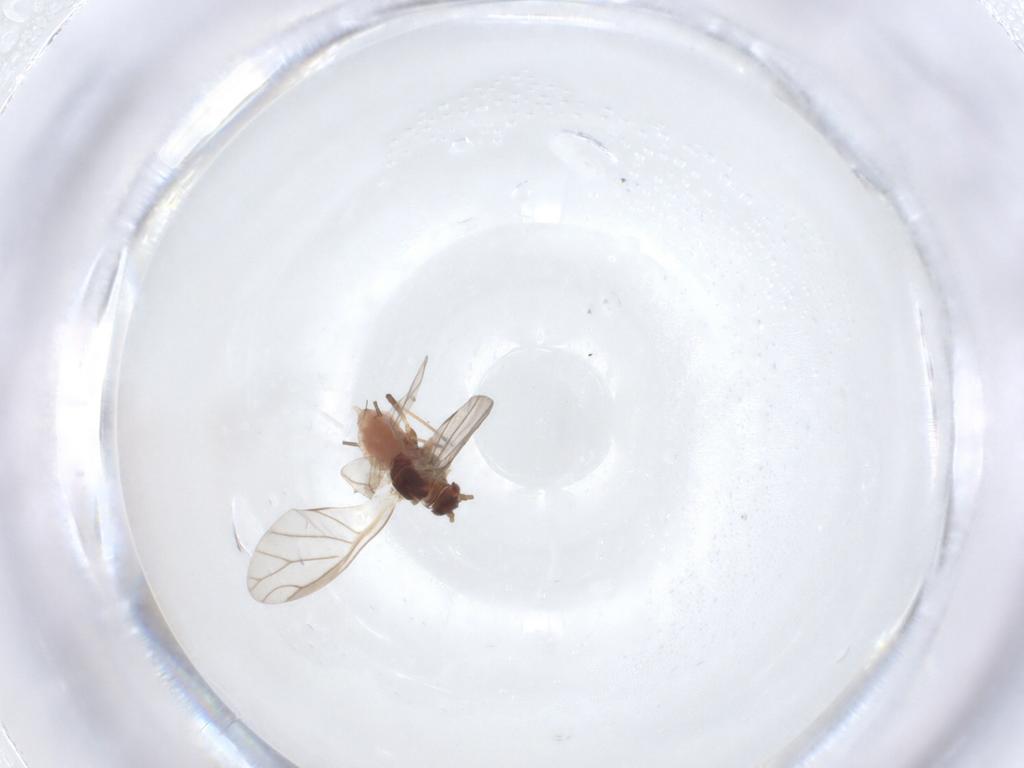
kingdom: Animalia
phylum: Arthropoda
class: Insecta
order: Hemiptera
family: Aphididae
